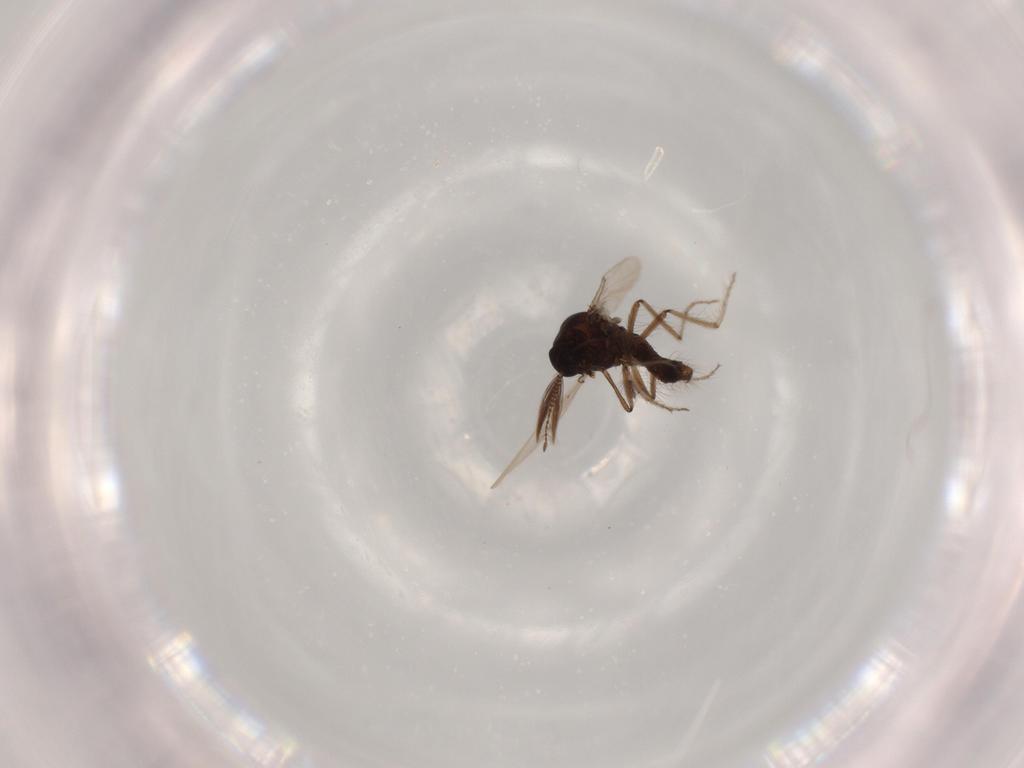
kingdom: Animalia
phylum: Arthropoda
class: Insecta
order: Diptera
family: Chironomidae
